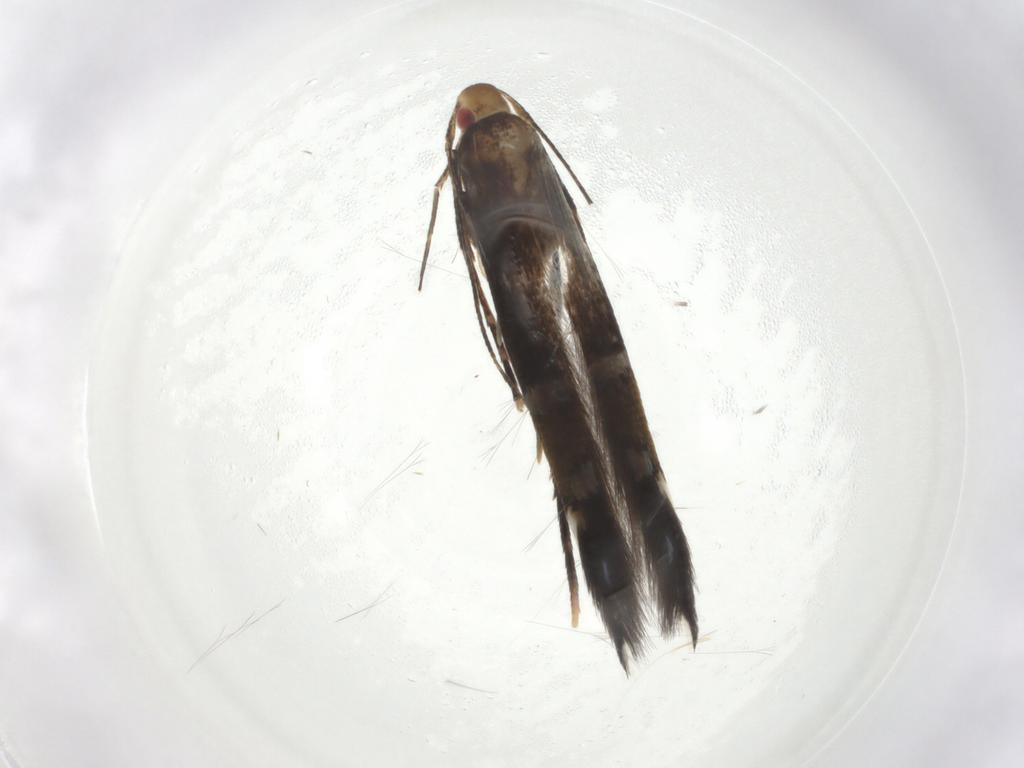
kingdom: Animalia
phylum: Arthropoda
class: Insecta
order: Lepidoptera
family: Cosmopterigidae
